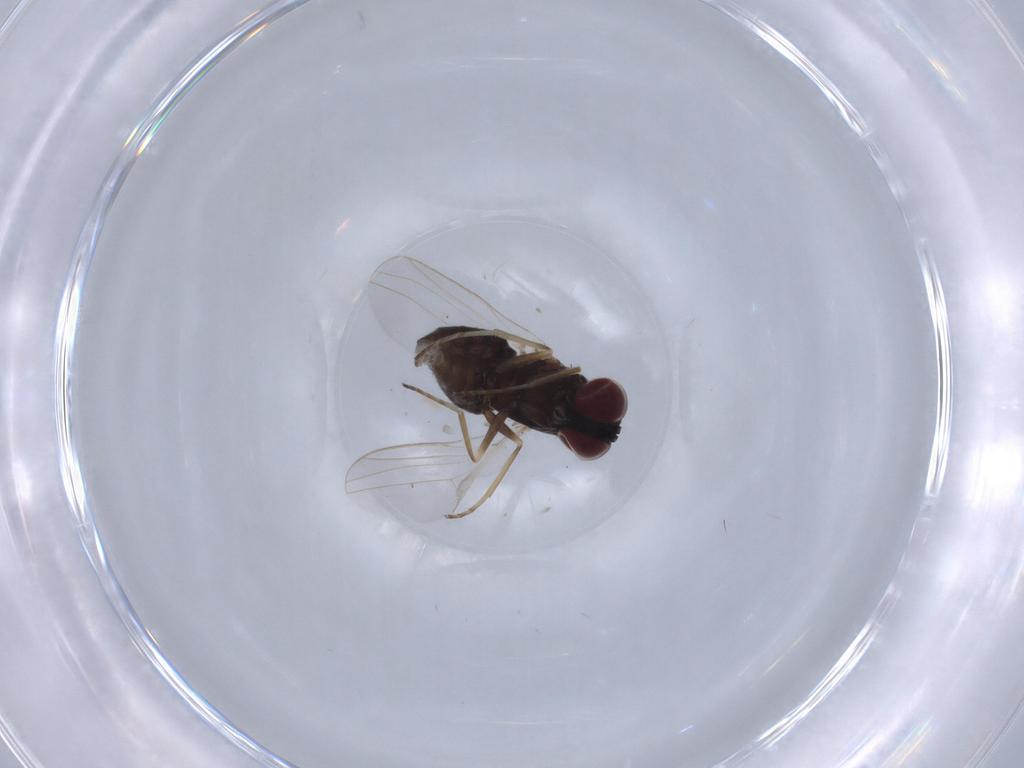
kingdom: Animalia
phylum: Arthropoda
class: Insecta
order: Diptera
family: Dolichopodidae
